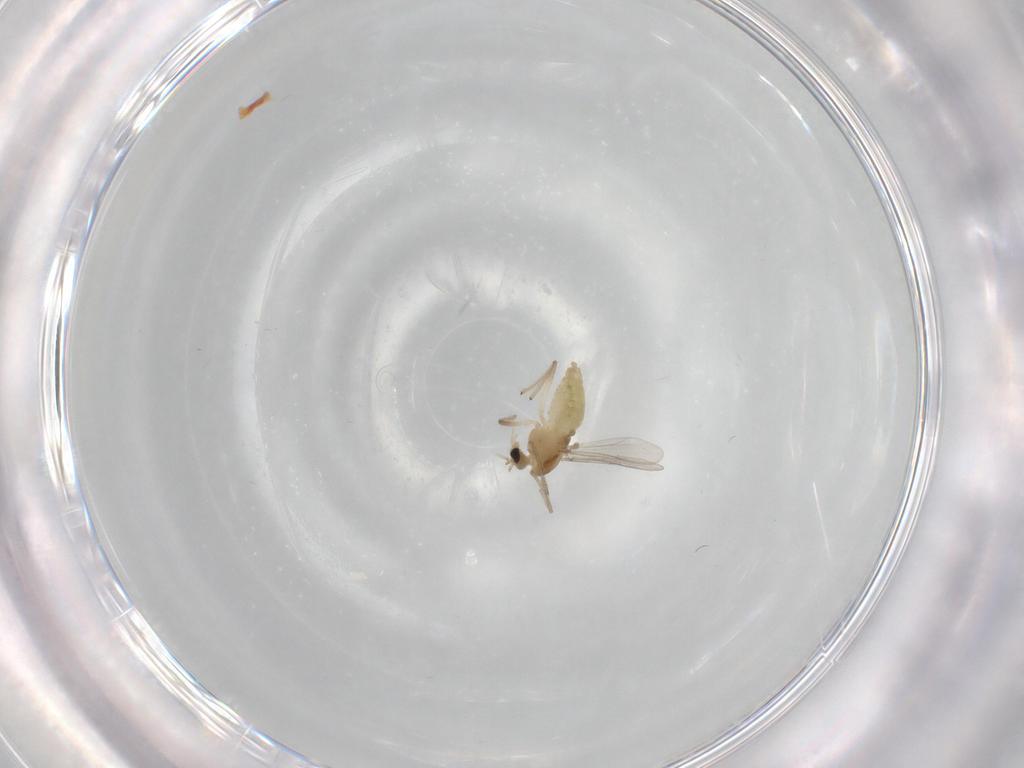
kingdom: Animalia
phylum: Arthropoda
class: Insecta
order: Diptera
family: Chironomidae
